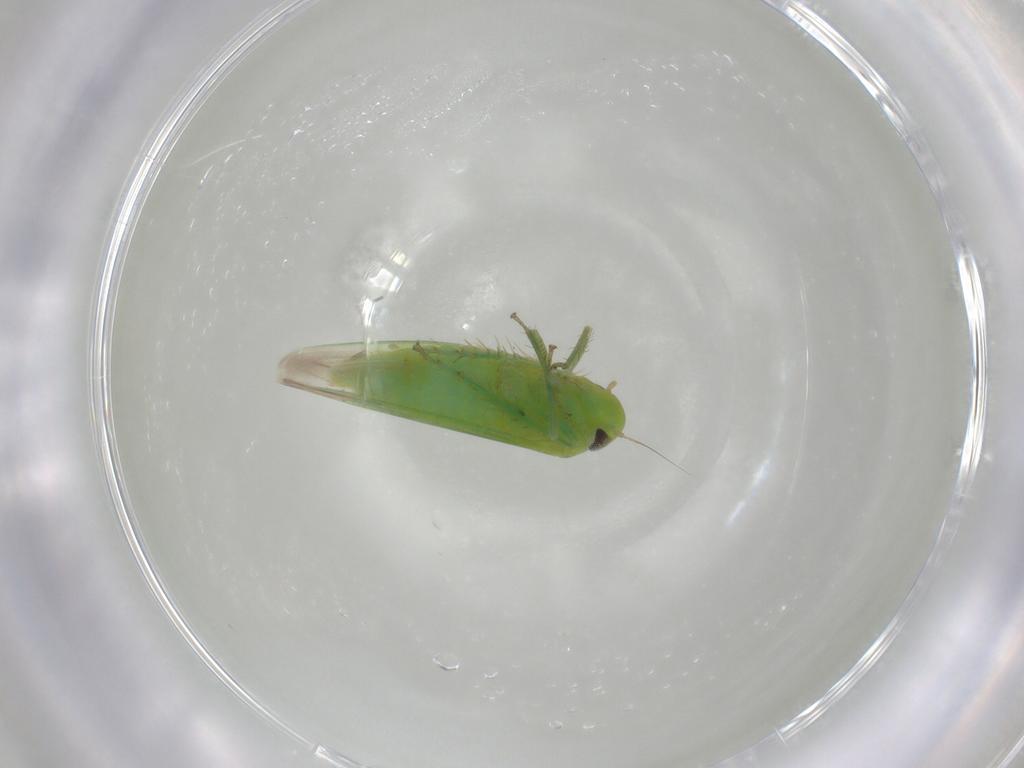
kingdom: Animalia
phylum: Arthropoda
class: Insecta
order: Hemiptera
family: Cicadellidae
